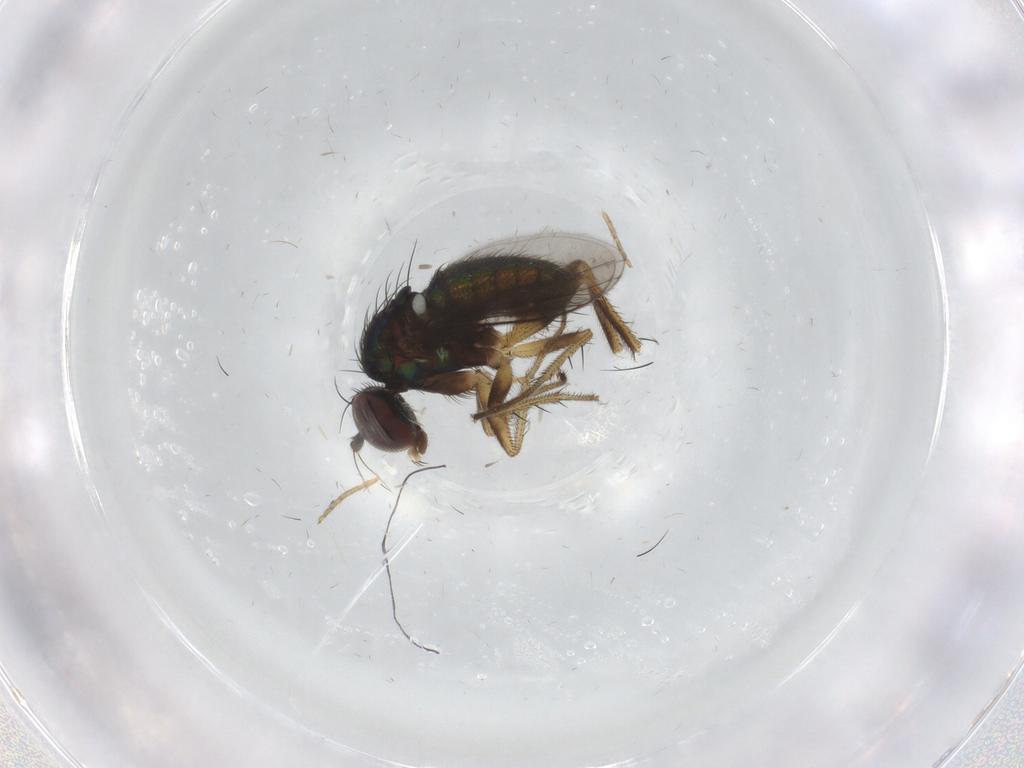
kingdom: Animalia
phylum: Arthropoda
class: Insecta
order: Diptera
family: Dolichopodidae
